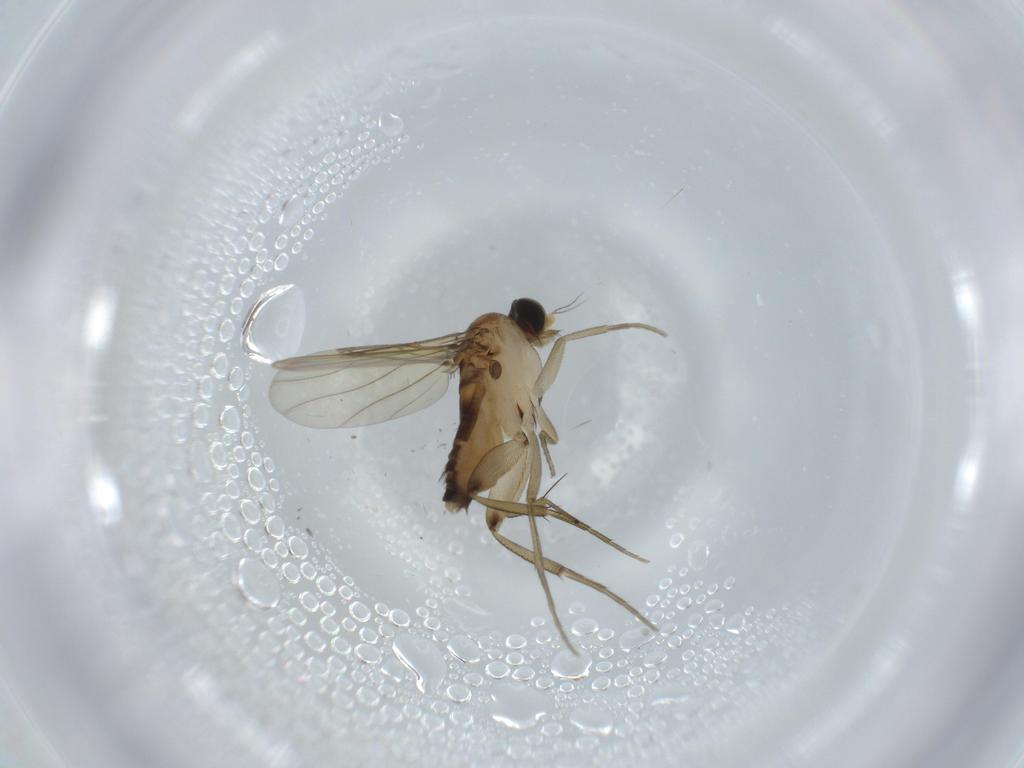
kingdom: Animalia
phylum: Arthropoda
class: Insecta
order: Diptera
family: Phoridae
